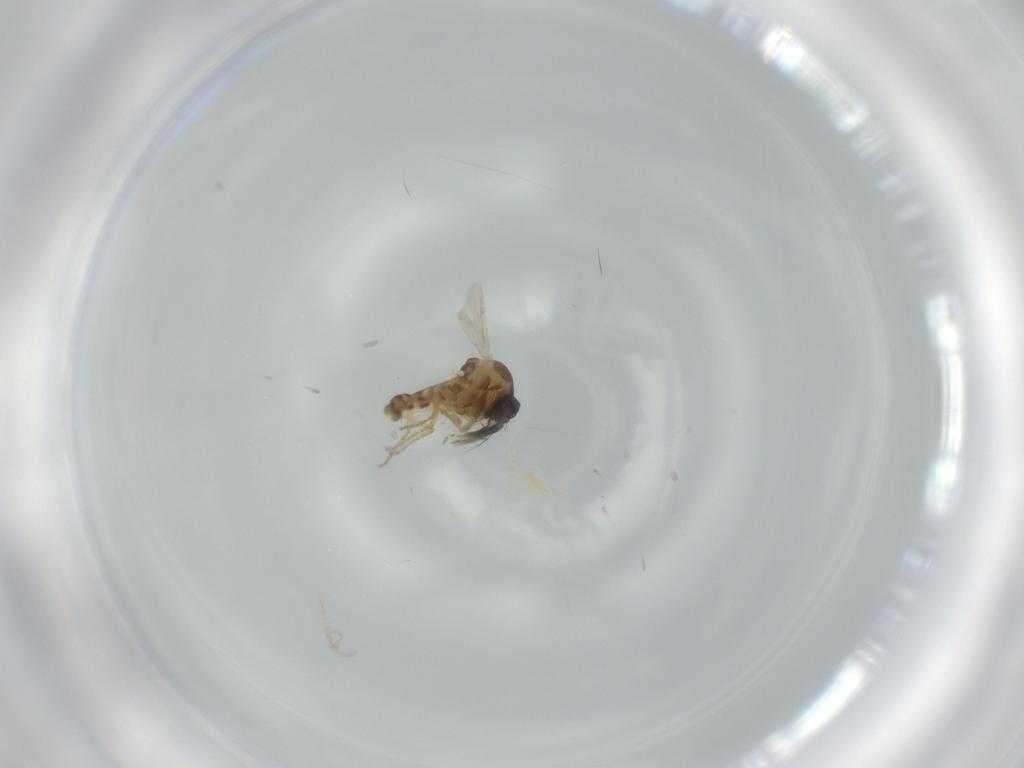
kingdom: Animalia
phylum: Arthropoda
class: Insecta
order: Diptera
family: Ceratopogonidae
